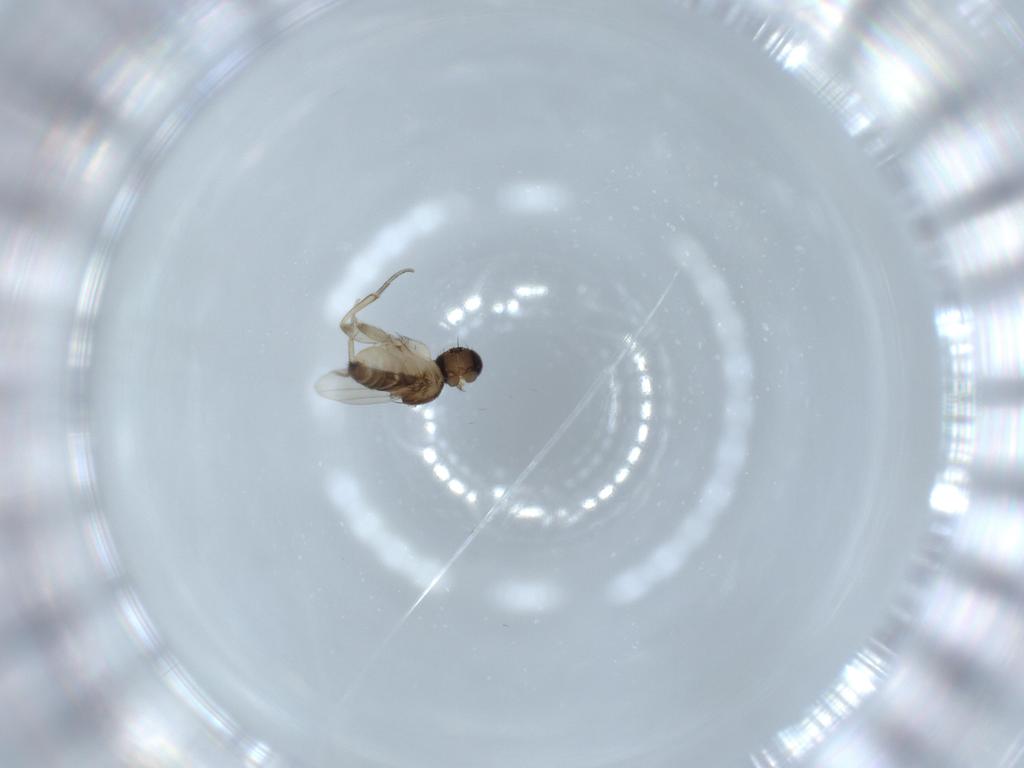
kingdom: Animalia
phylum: Arthropoda
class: Insecta
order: Diptera
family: Phoridae
